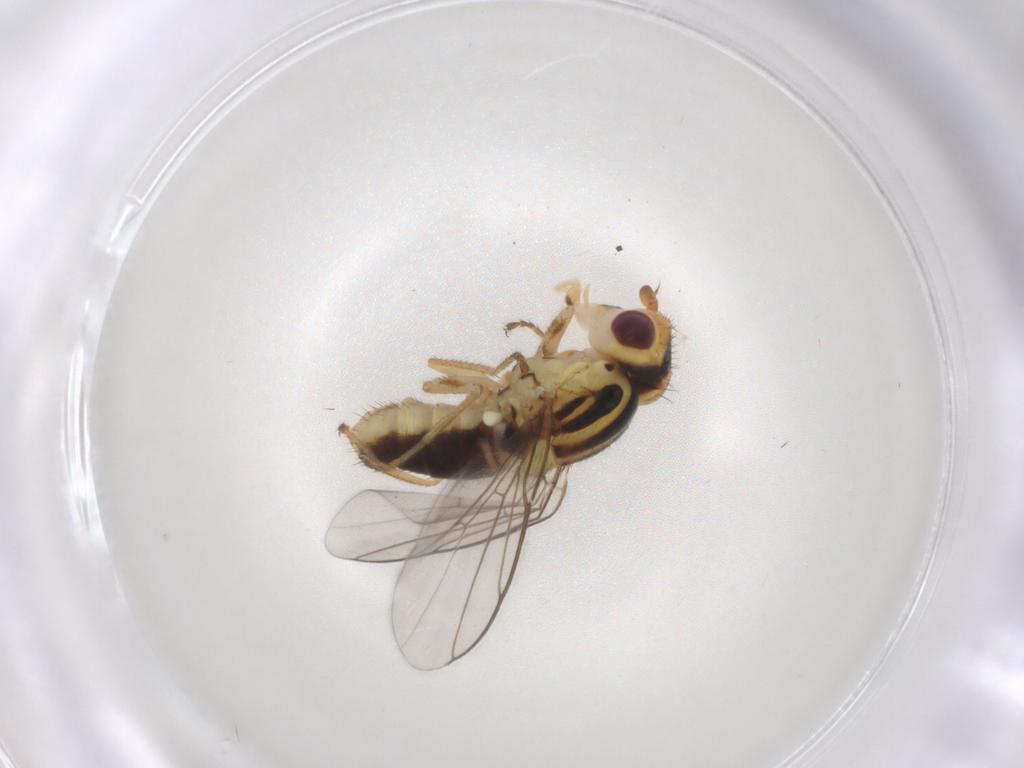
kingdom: Animalia
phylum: Arthropoda
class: Insecta
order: Diptera
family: Chloropidae
